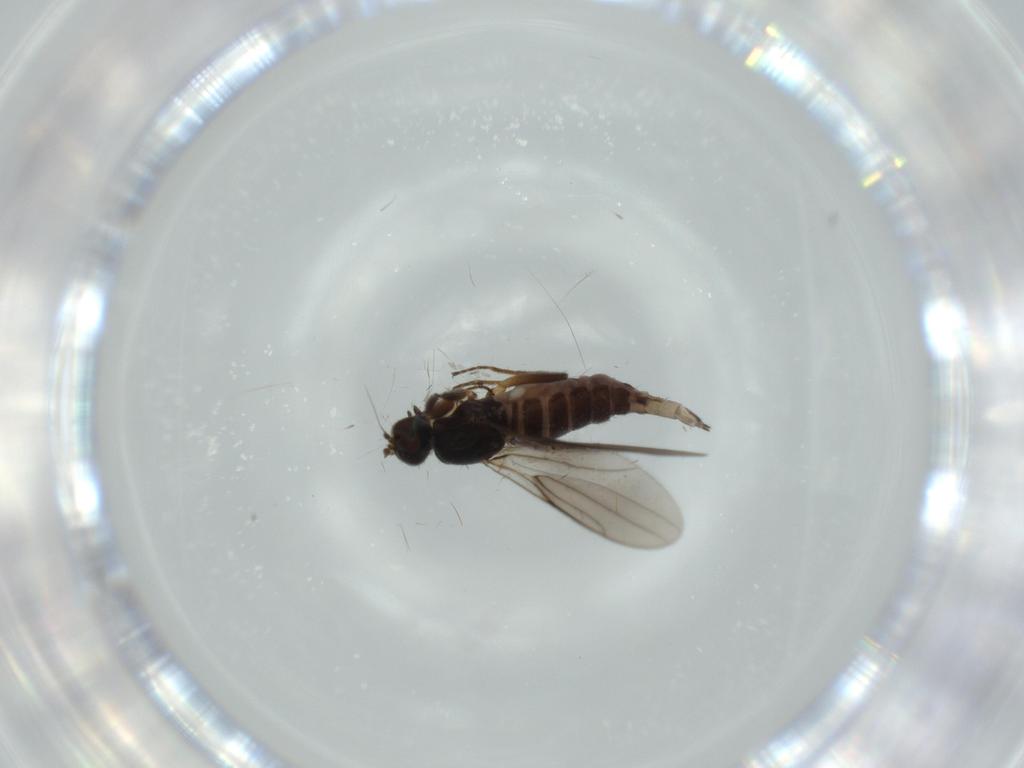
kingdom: Animalia
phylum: Arthropoda
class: Insecta
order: Diptera
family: Hybotidae
